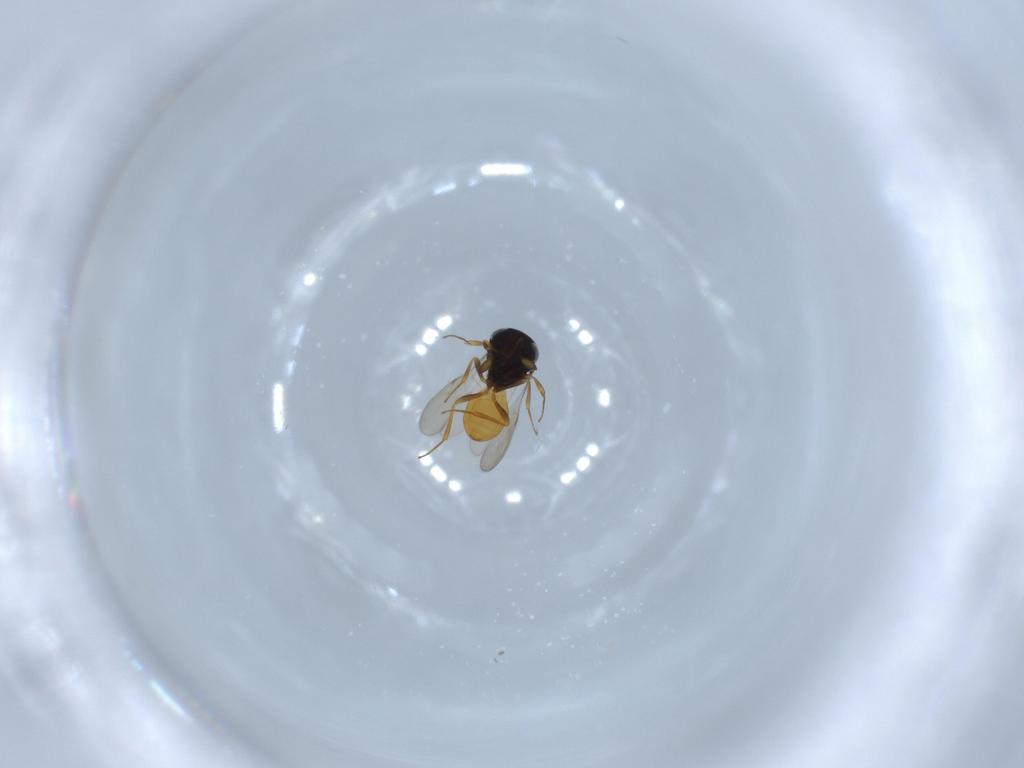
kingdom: Animalia
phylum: Arthropoda
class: Insecta
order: Hymenoptera
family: Scelionidae
